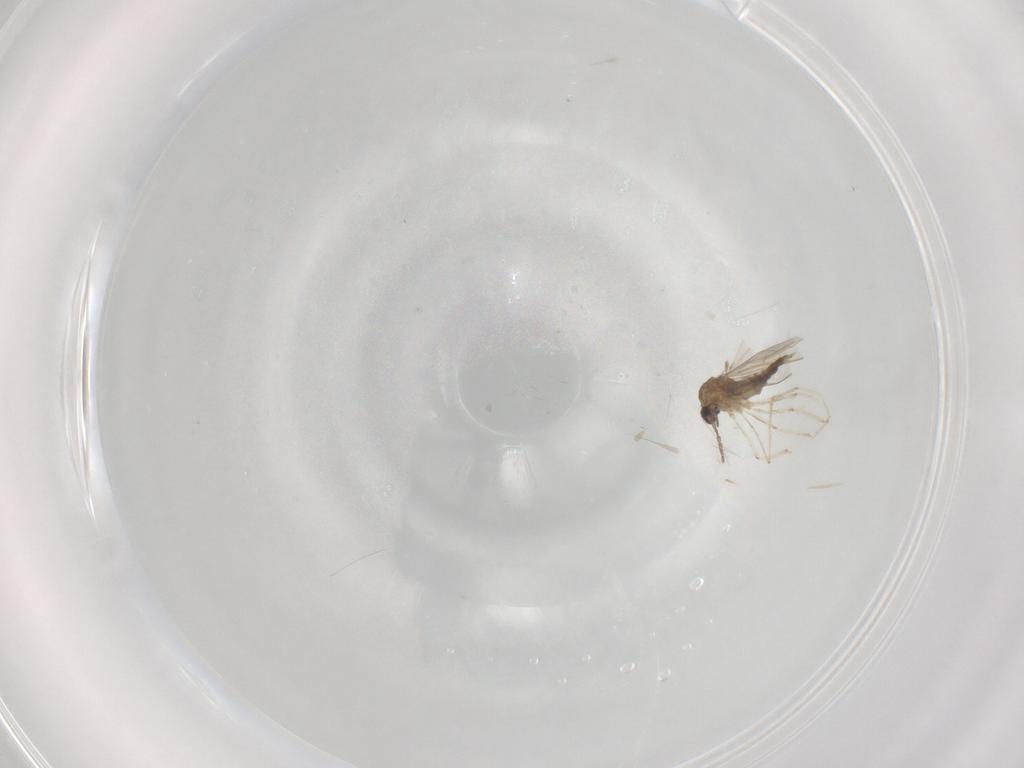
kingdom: Animalia
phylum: Arthropoda
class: Insecta
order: Diptera
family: Cecidomyiidae
